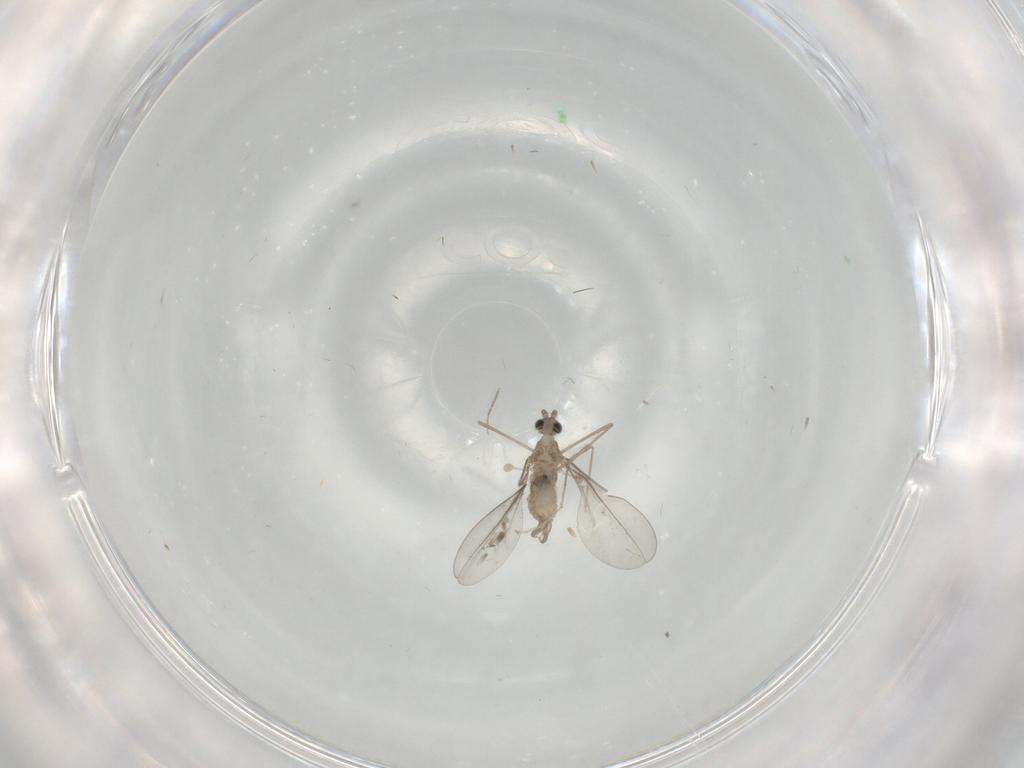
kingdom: Animalia
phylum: Arthropoda
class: Insecta
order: Diptera
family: Cecidomyiidae
